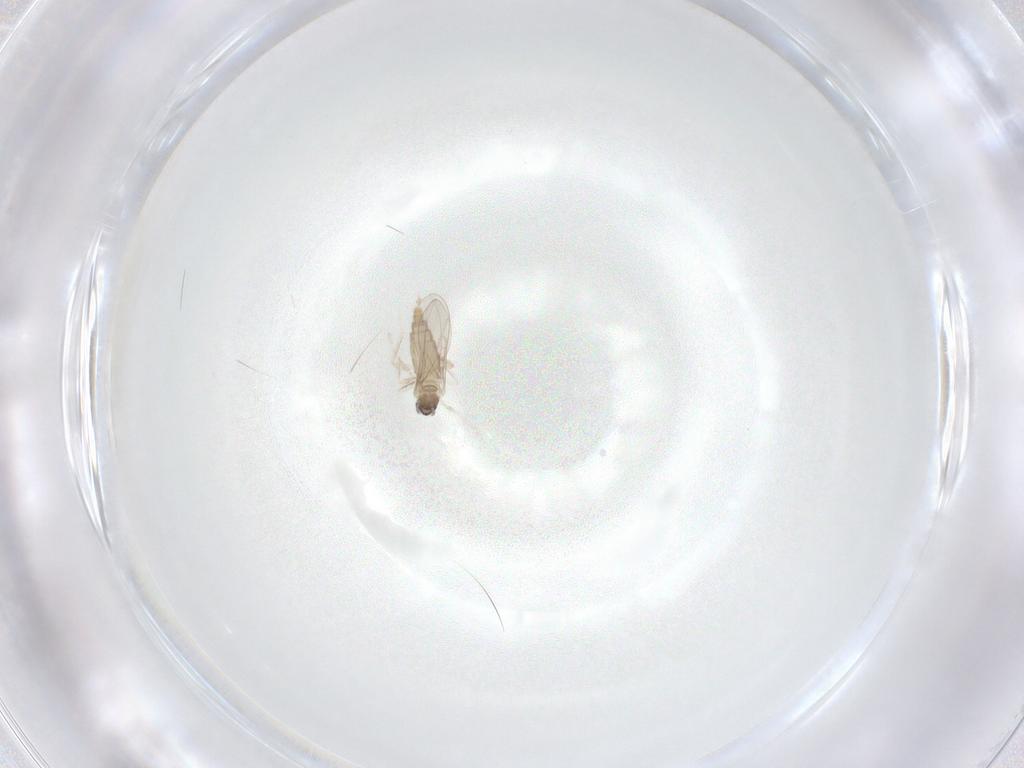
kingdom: Animalia
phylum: Arthropoda
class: Insecta
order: Diptera
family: Cecidomyiidae
